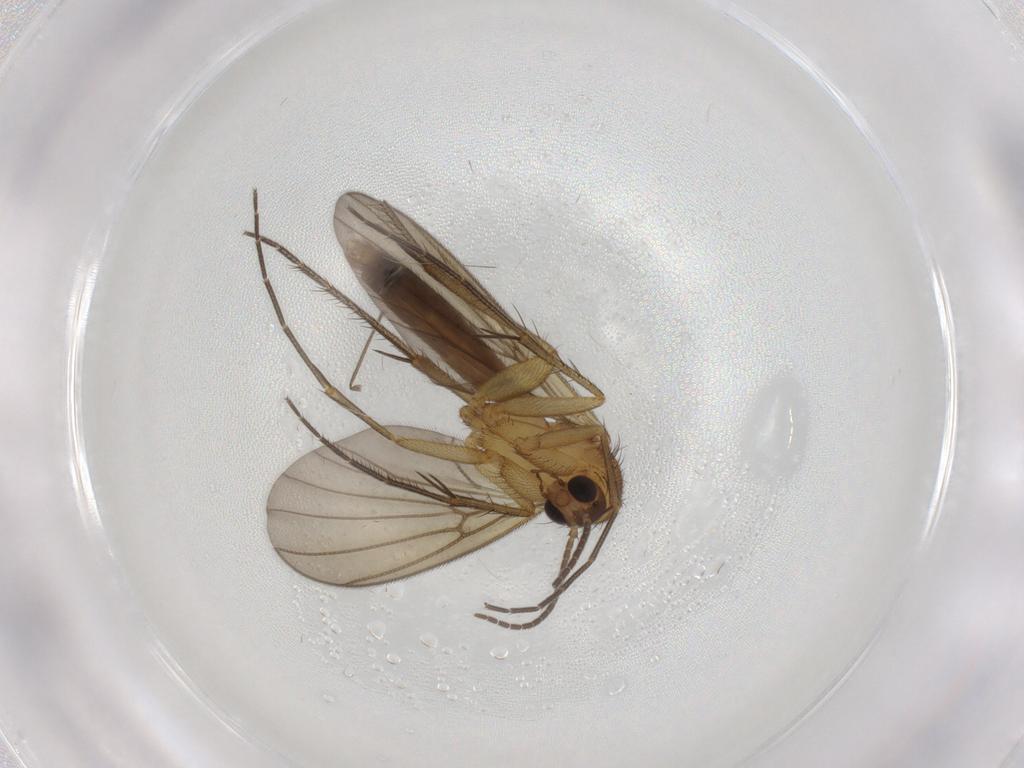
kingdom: Animalia
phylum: Arthropoda
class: Insecta
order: Diptera
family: Mycetophilidae
